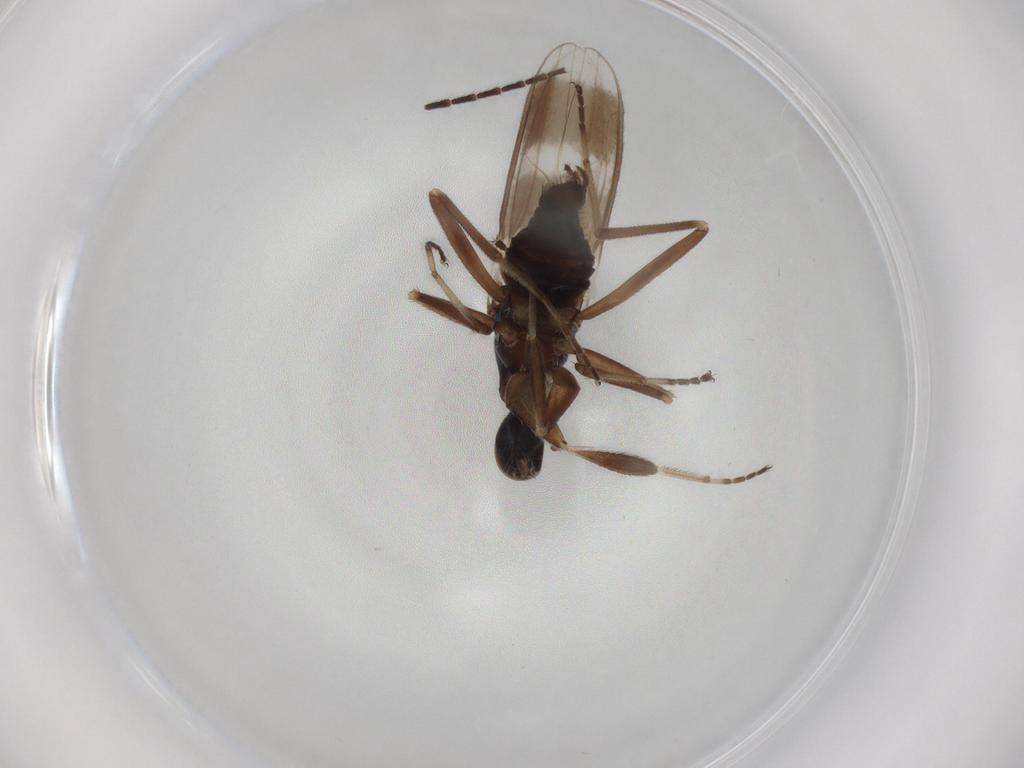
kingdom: Animalia
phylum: Arthropoda
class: Insecta
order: Diptera
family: Hybotidae
